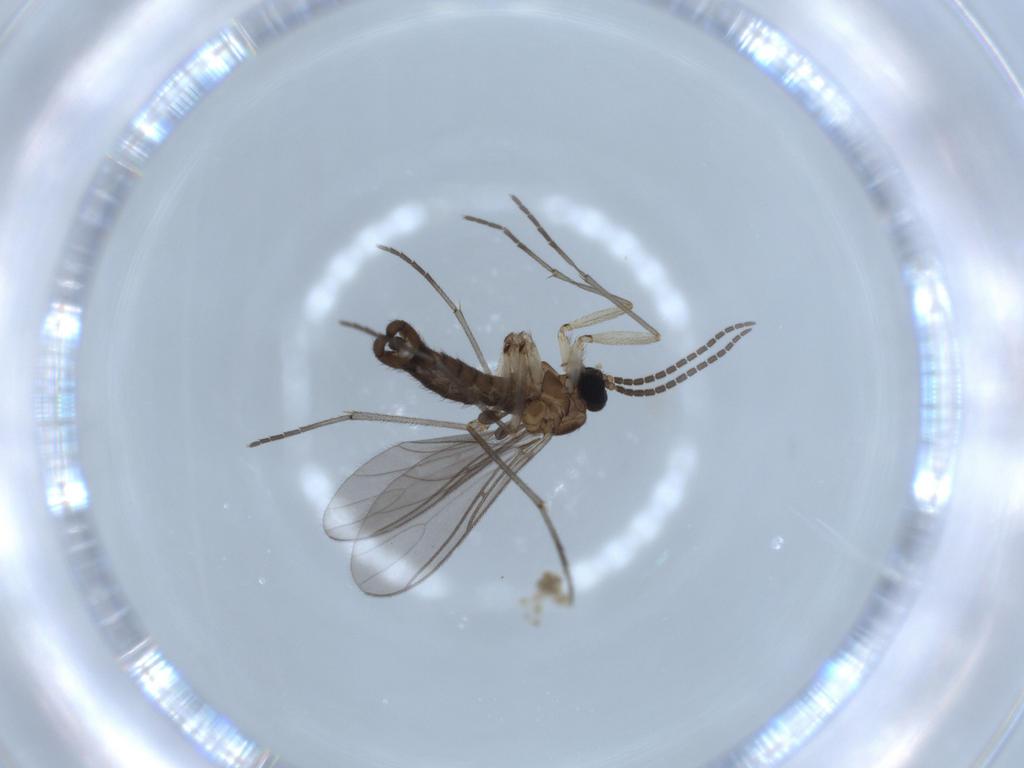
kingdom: Animalia
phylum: Arthropoda
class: Insecta
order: Diptera
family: Sciaridae
